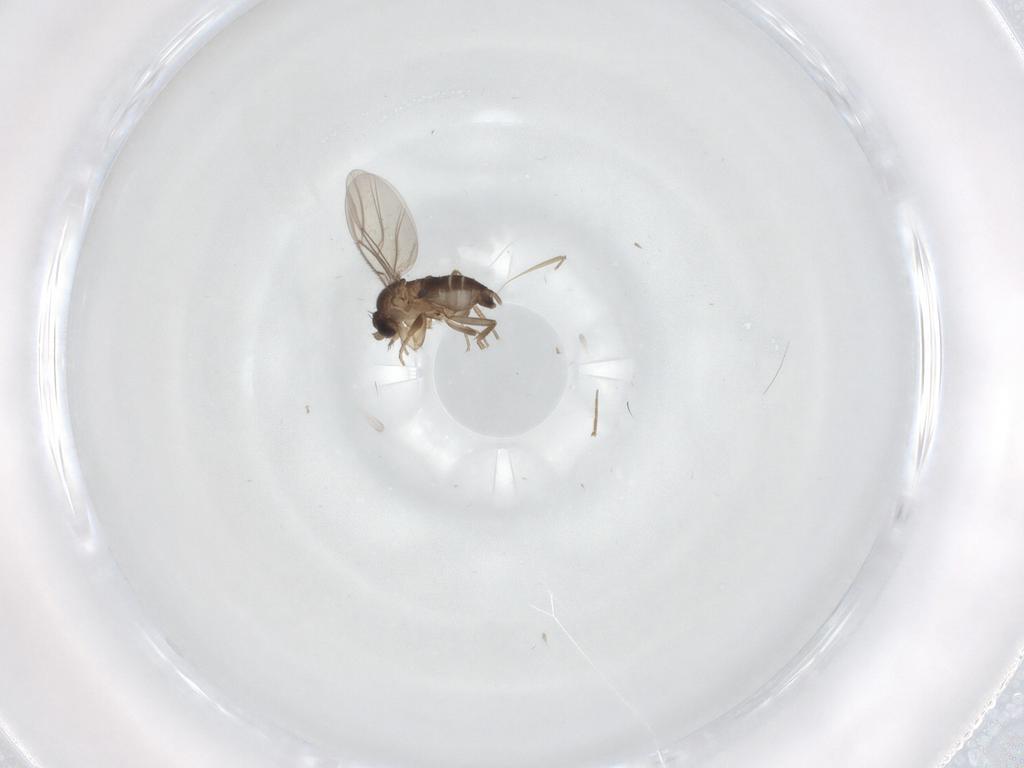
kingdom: Animalia
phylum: Arthropoda
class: Insecta
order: Diptera
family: Phoridae
